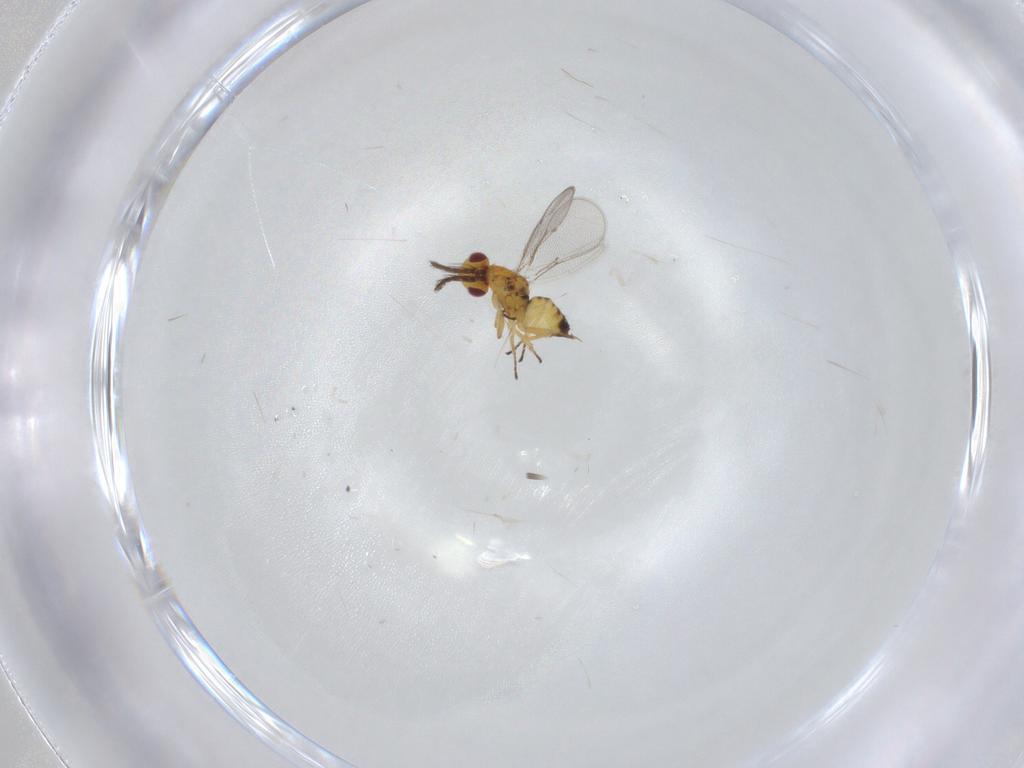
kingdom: Animalia
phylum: Arthropoda
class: Insecta
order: Hymenoptera
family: Eulophidae
